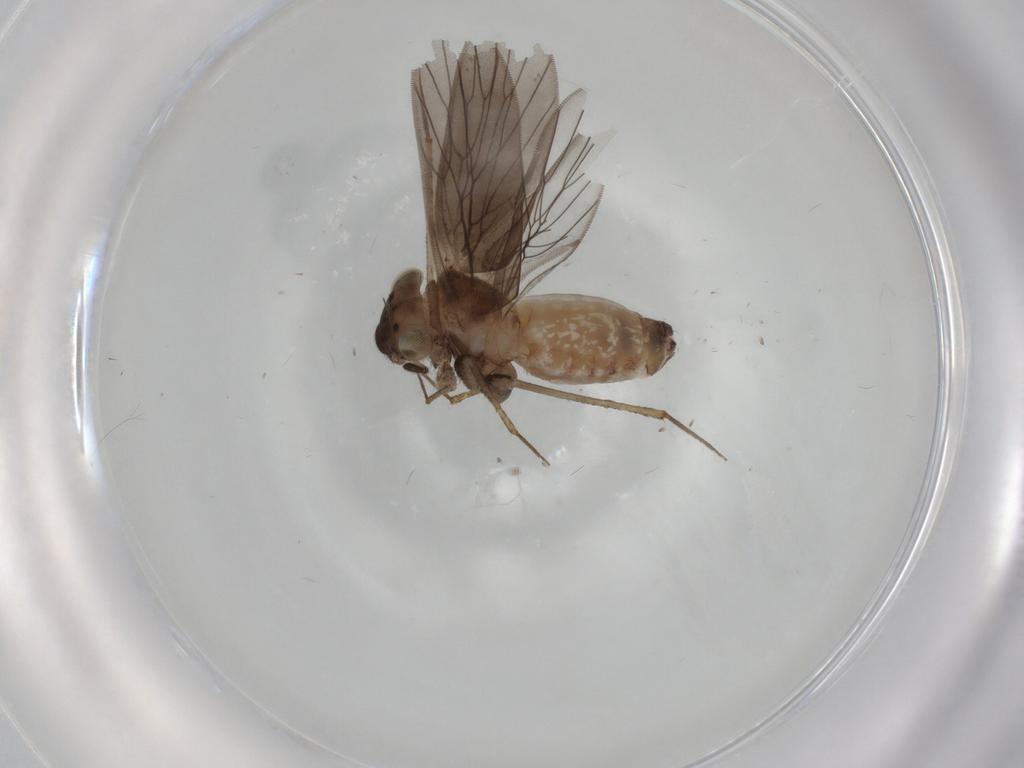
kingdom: Animalia
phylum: Arthropoda
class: Insecta
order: Psocodea
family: Lepidopsocidae
